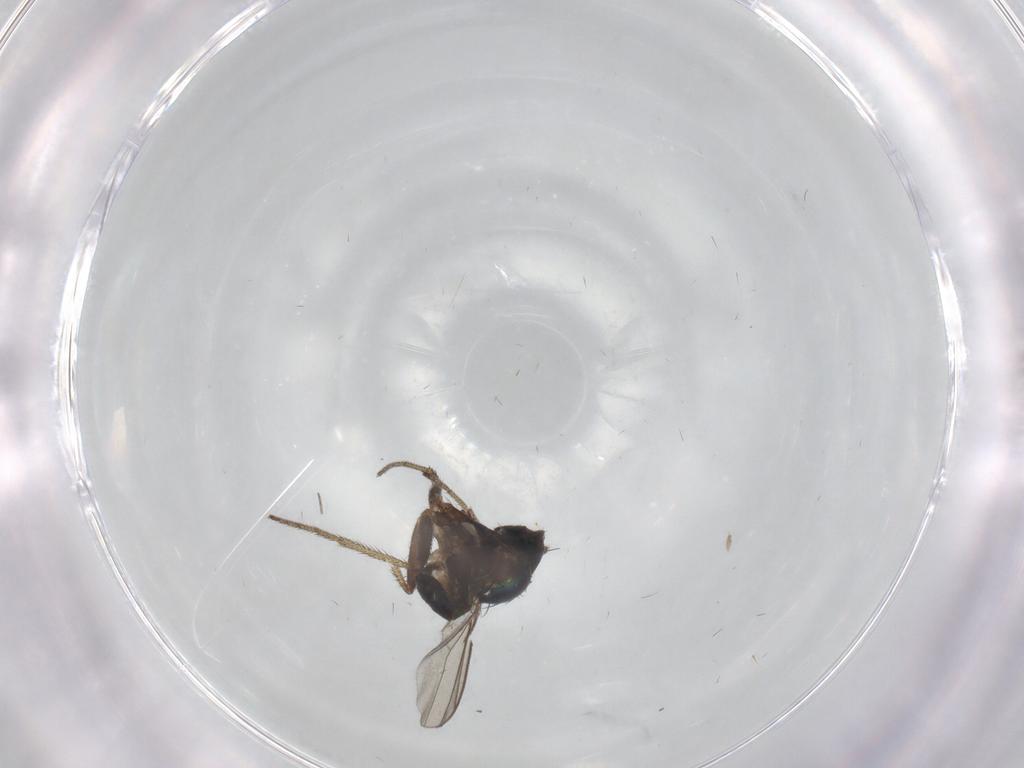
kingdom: Animalia
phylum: Arthropoda
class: Insecta
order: Diptera
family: Dolichopodidae
